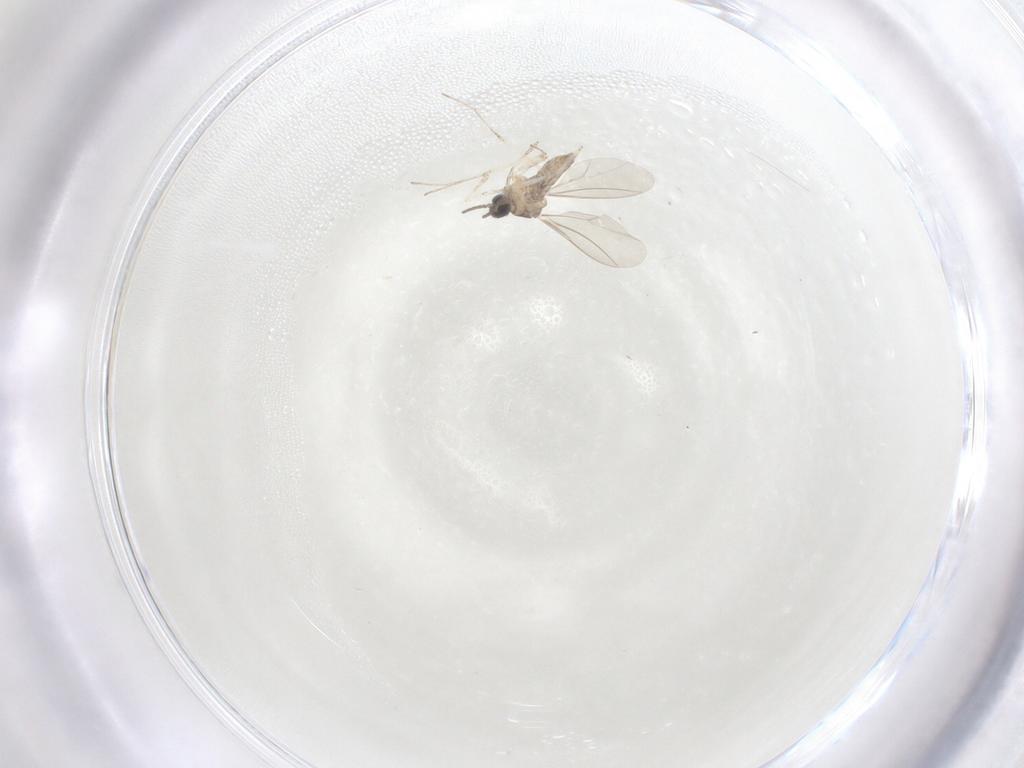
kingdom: Animalia
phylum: Arthropoda
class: Insecta
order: Diptera
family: Cecidomyiidae
